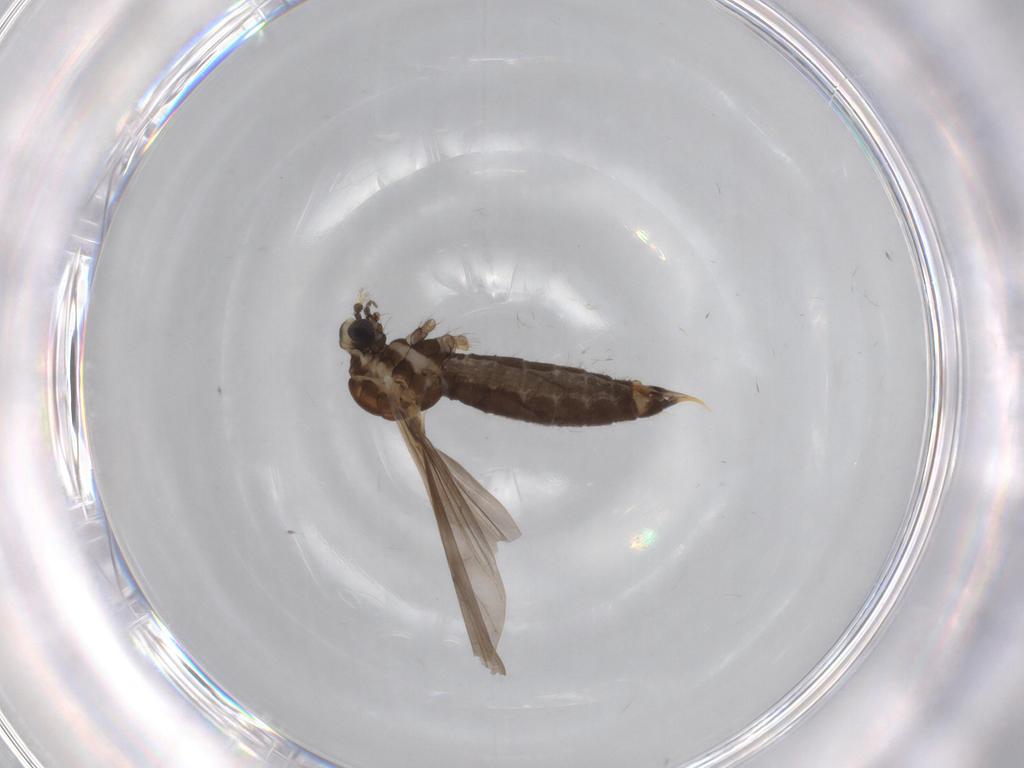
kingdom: Animalia
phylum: Arthropoda
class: Insecta
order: Diptera
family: Limoniidae
